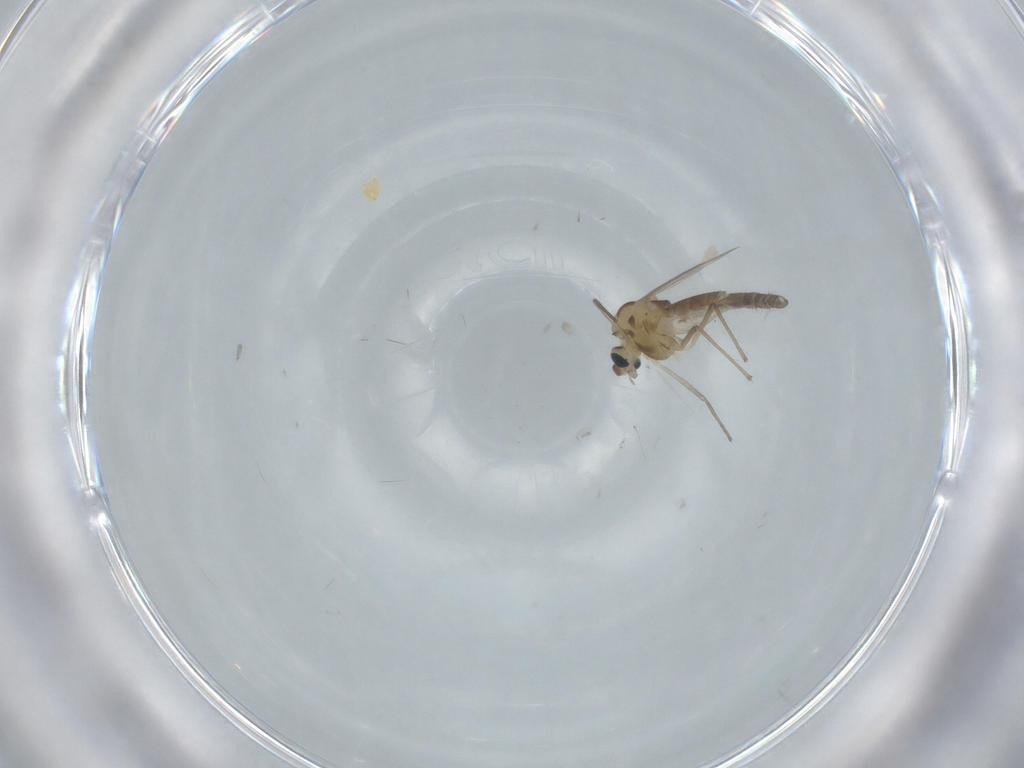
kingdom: Animalia
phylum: Arthropoda
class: Insecta
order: Diptera
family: Chironomidae
